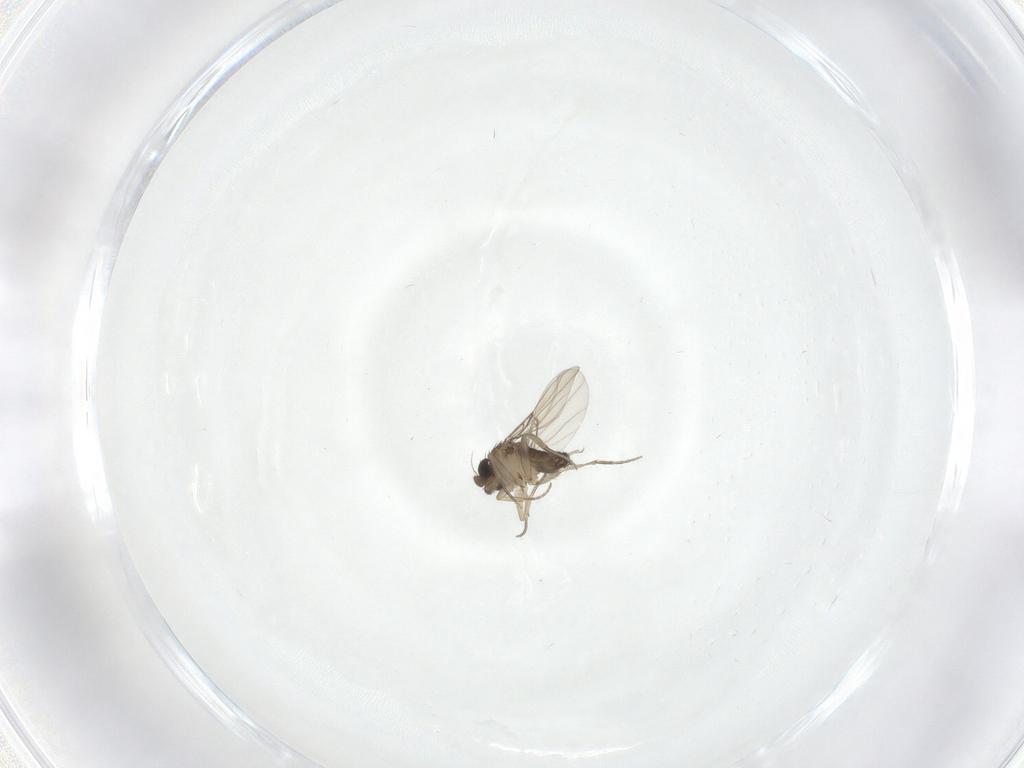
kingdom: Animalia
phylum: Arthropoda
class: Insecta
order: Diptera
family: Phoridae
